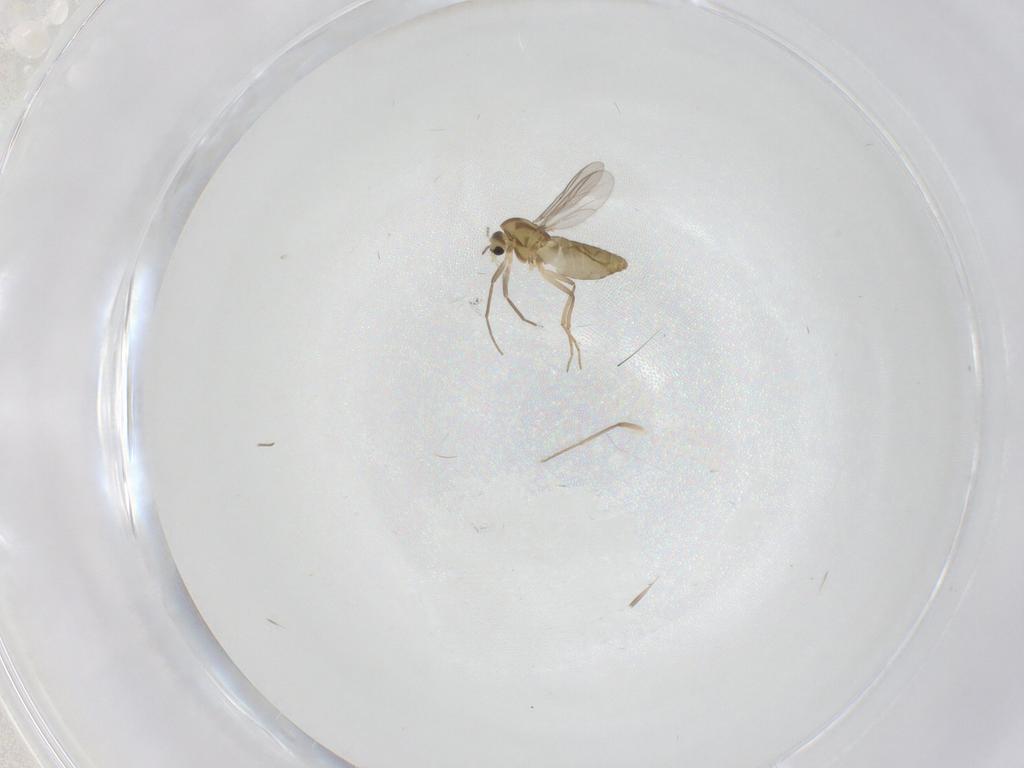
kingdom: Animalia
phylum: Arthropoda
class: Insecta
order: Diptera
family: Chironomidae
